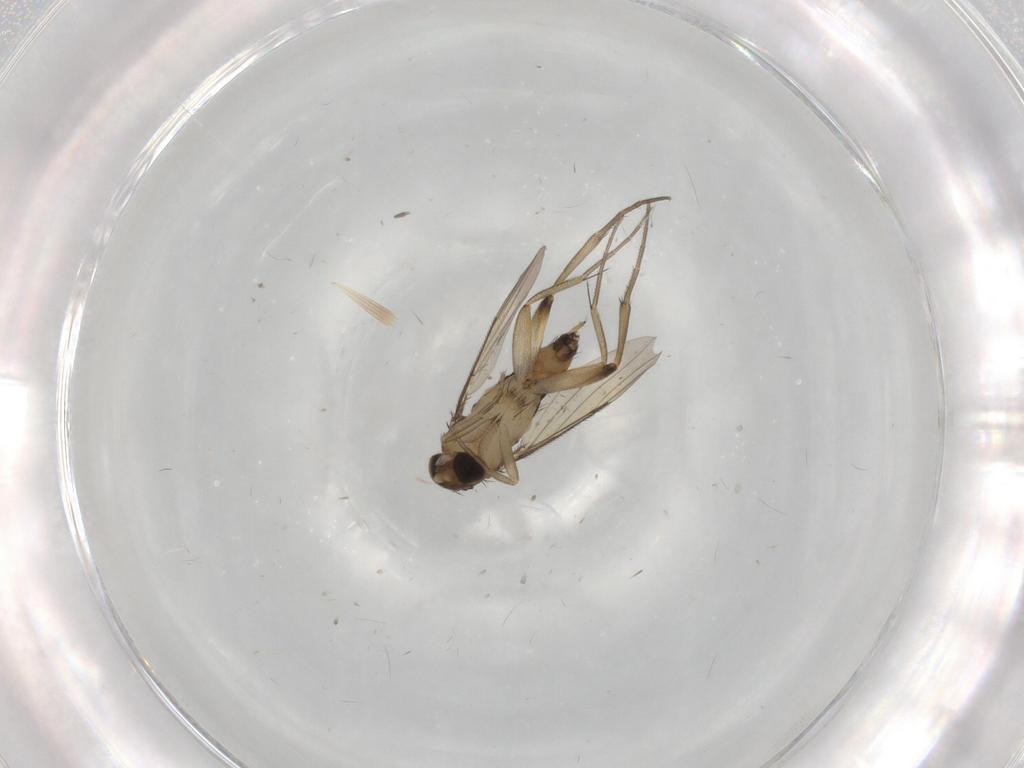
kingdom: Animalia
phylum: Arthropoda
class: Insecta
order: Diptera
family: Phoridae
